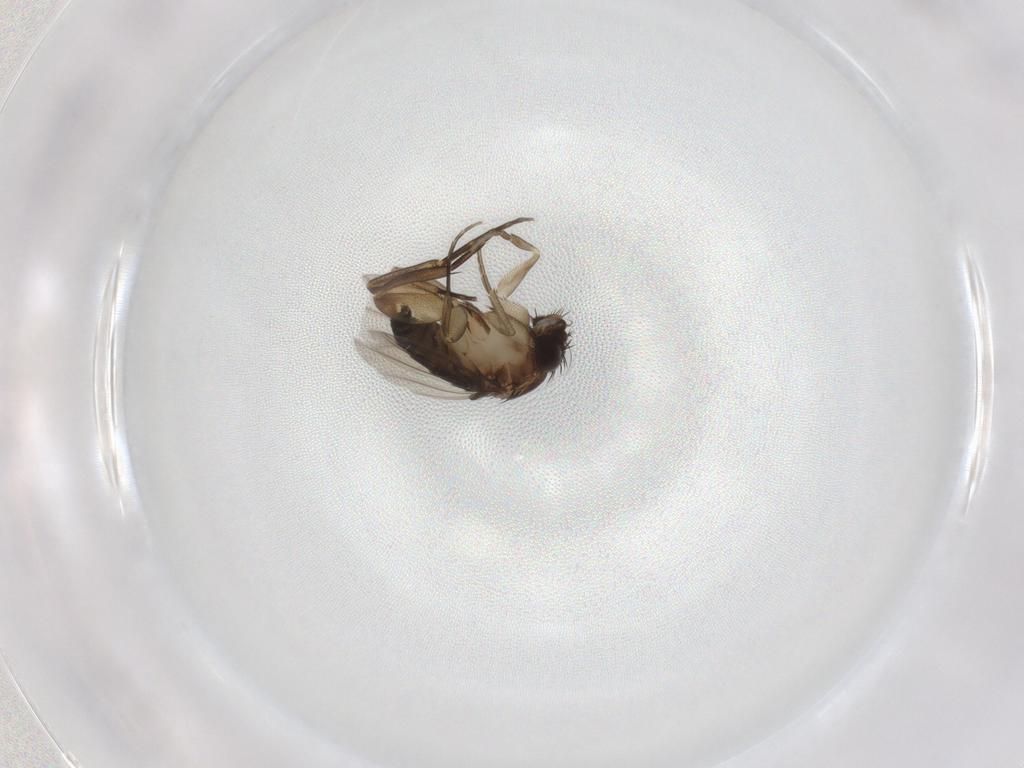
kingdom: Animalia
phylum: Arthropoda
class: Insecta
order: Diptera
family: Phoridae
